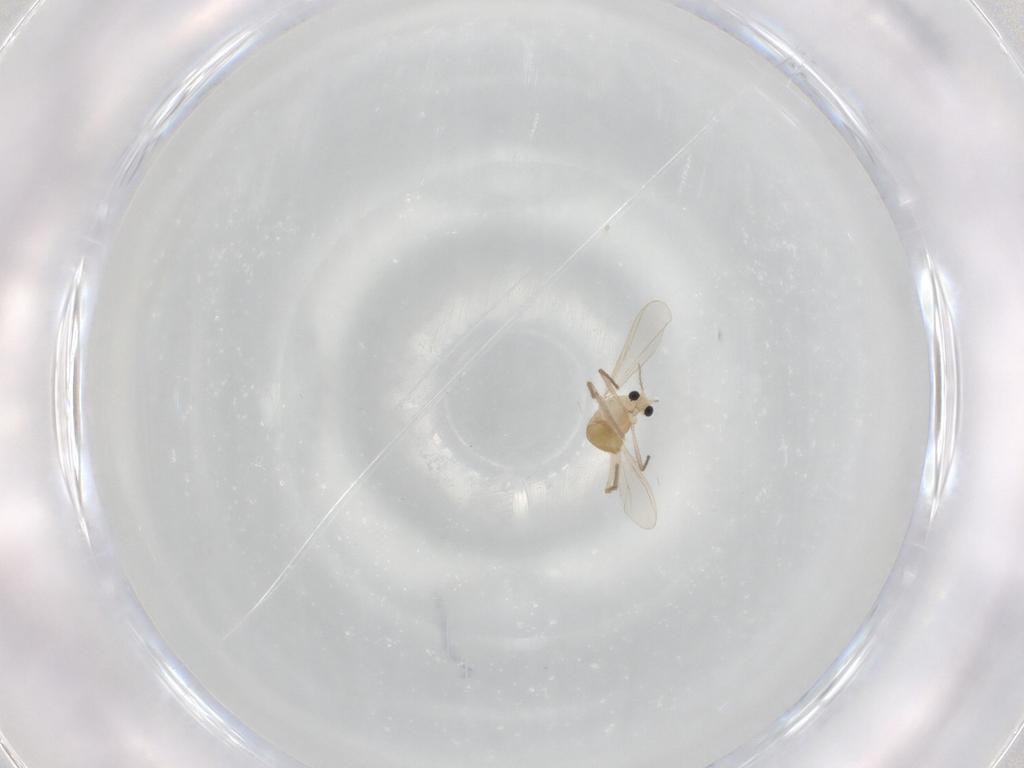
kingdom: Animalia
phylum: Arthropoda
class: Insecta
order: Diptera
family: Chironomidae
